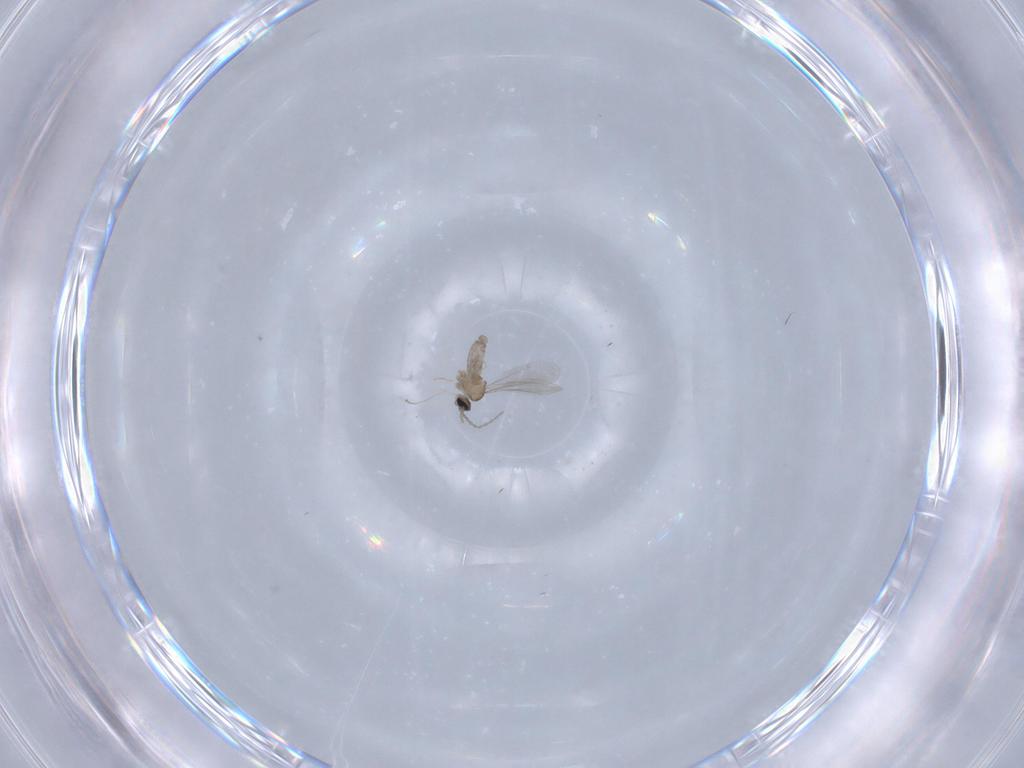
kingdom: Animalia
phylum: Arthropoda
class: Insecta
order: Diptera
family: Cecidomyiidae
